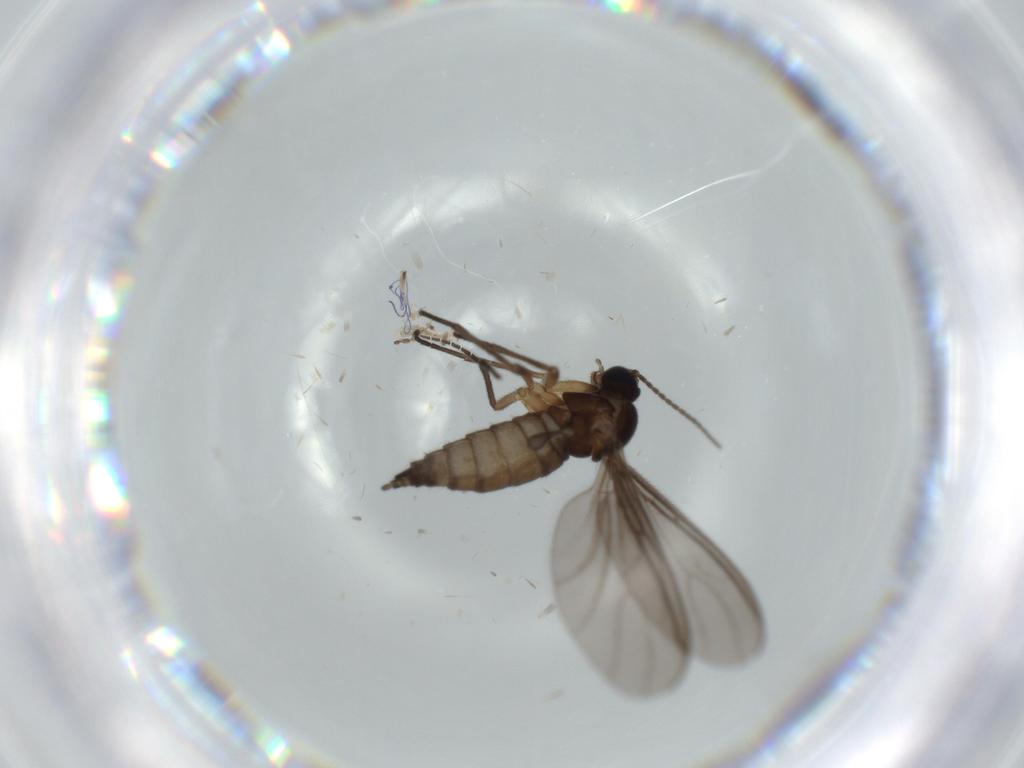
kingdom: Animalia
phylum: Arthropoda
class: Insecta
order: Diptera
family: Sciaridae
